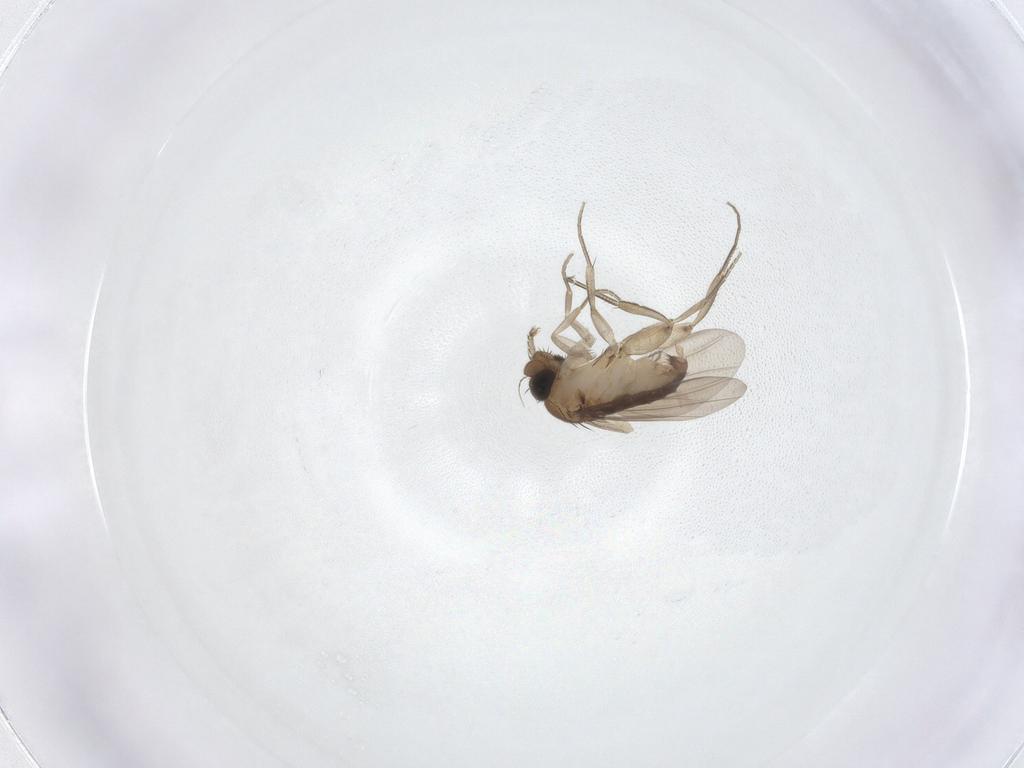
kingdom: Animalia
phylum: Arthropoda
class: Insecta
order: Diptera
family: Phoridae
